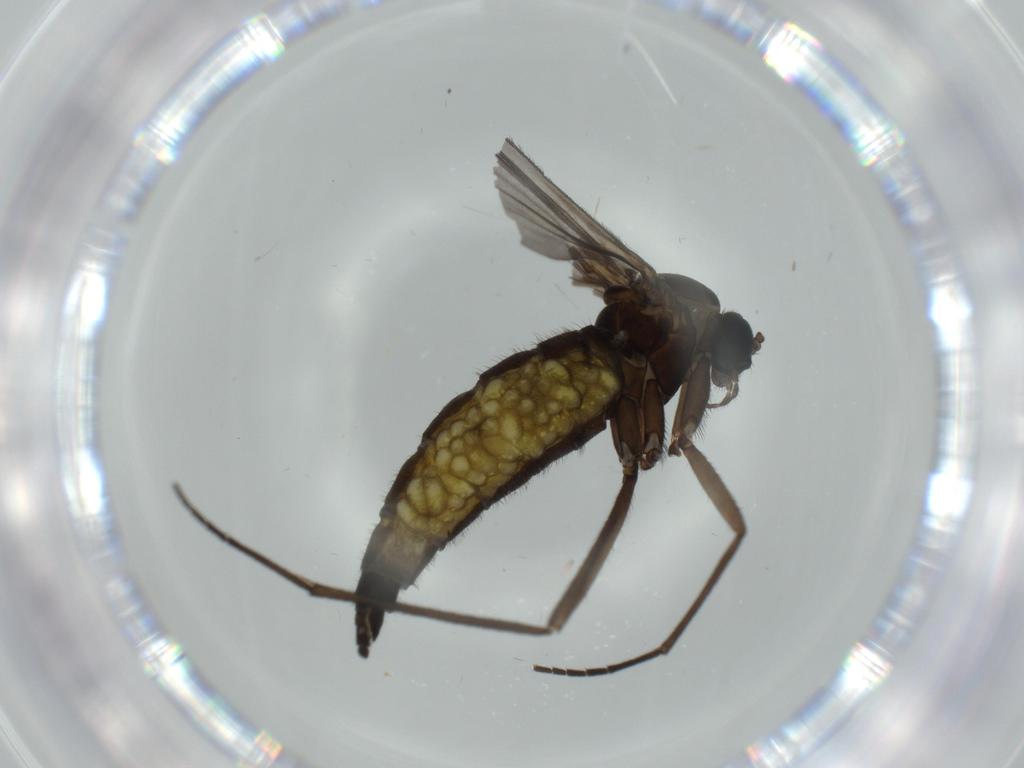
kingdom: Animalia
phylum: Arthropoda
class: Insecta
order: Diptera
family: Sciaridae
